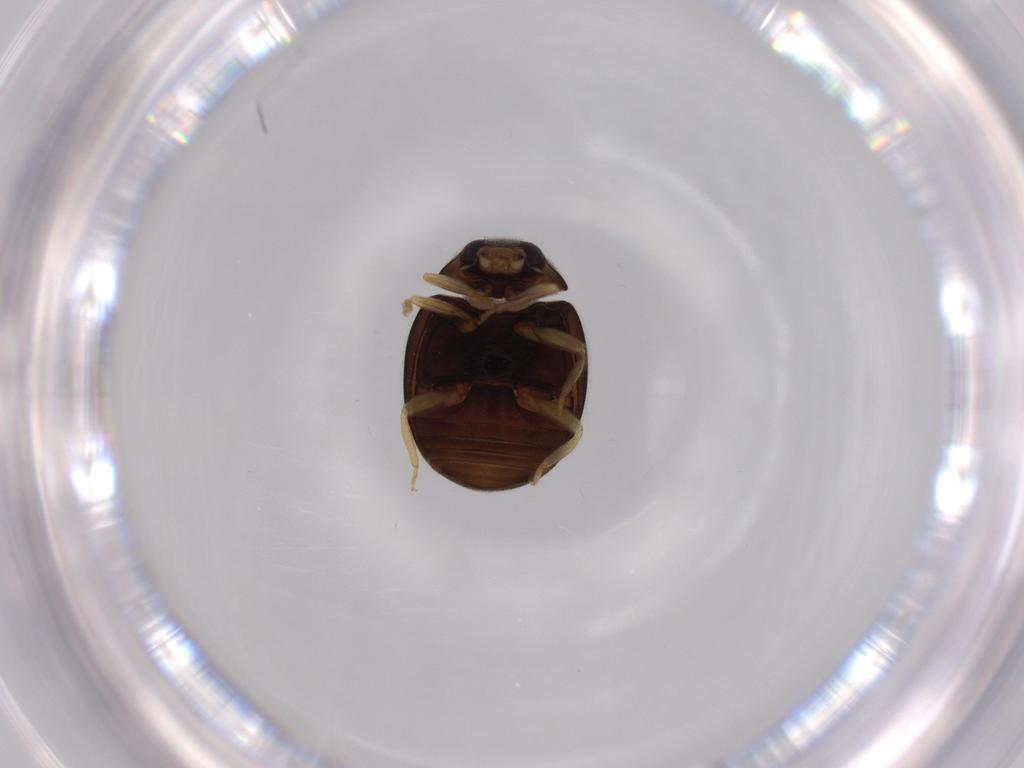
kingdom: Animalia
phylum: Arthropoda
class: Insecta
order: Coleoptera
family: Coccinellidae
